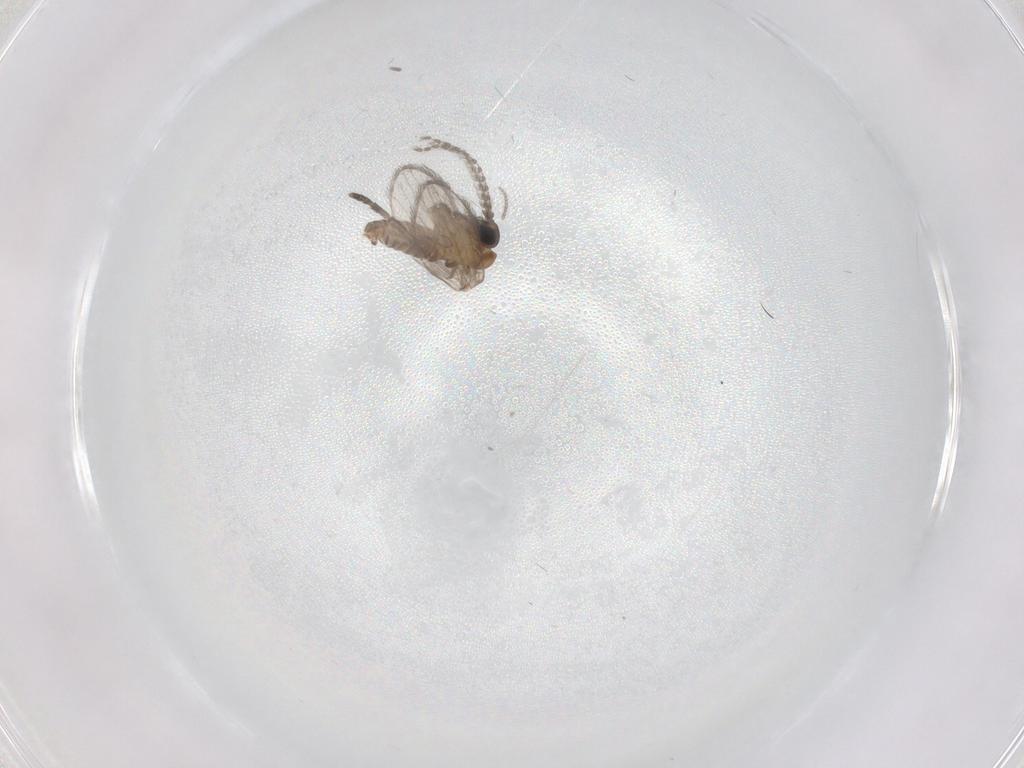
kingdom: Animalia
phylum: Arthropoda
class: Insecta
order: Diptera
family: Psychodidae
